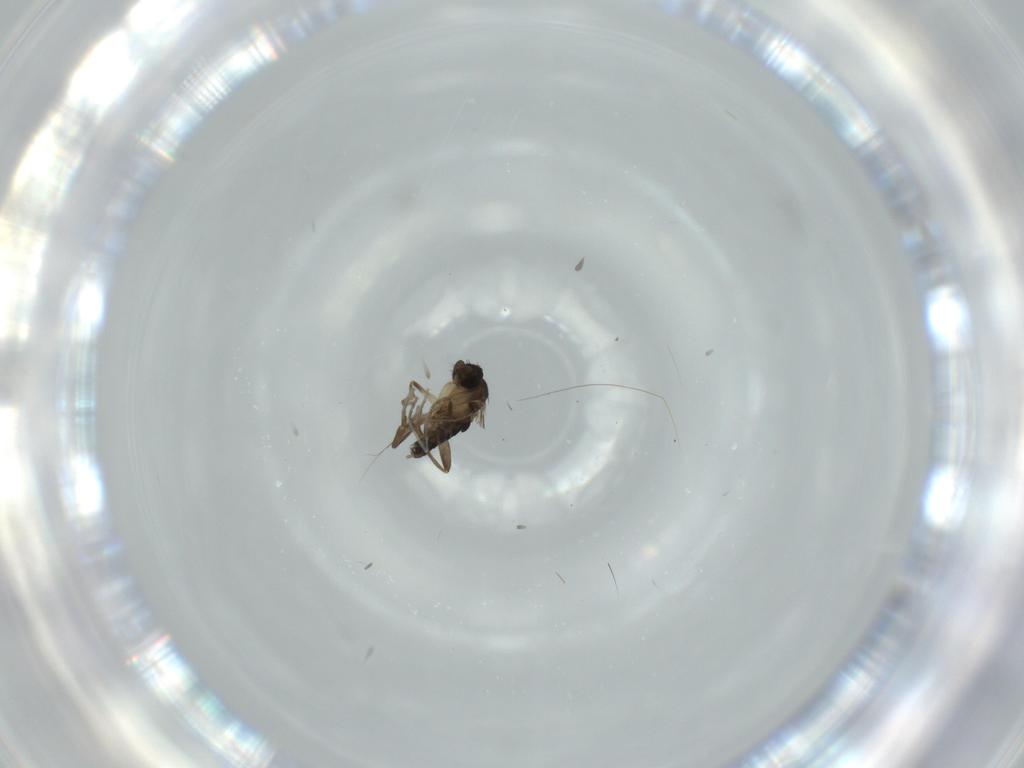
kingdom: Animalia
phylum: Arthropoda
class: Insecta
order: Diptera
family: Phoridae
